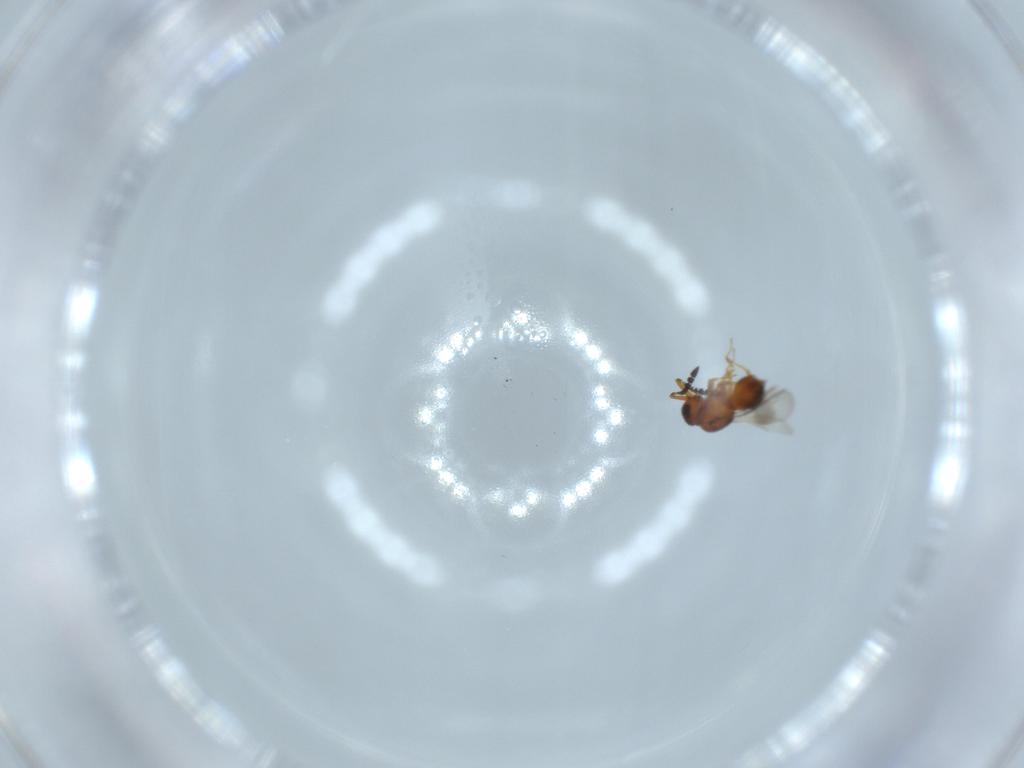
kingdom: Animalia
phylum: Arthropoda
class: Insecta
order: Hymenoptera
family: Ceraphronidae
